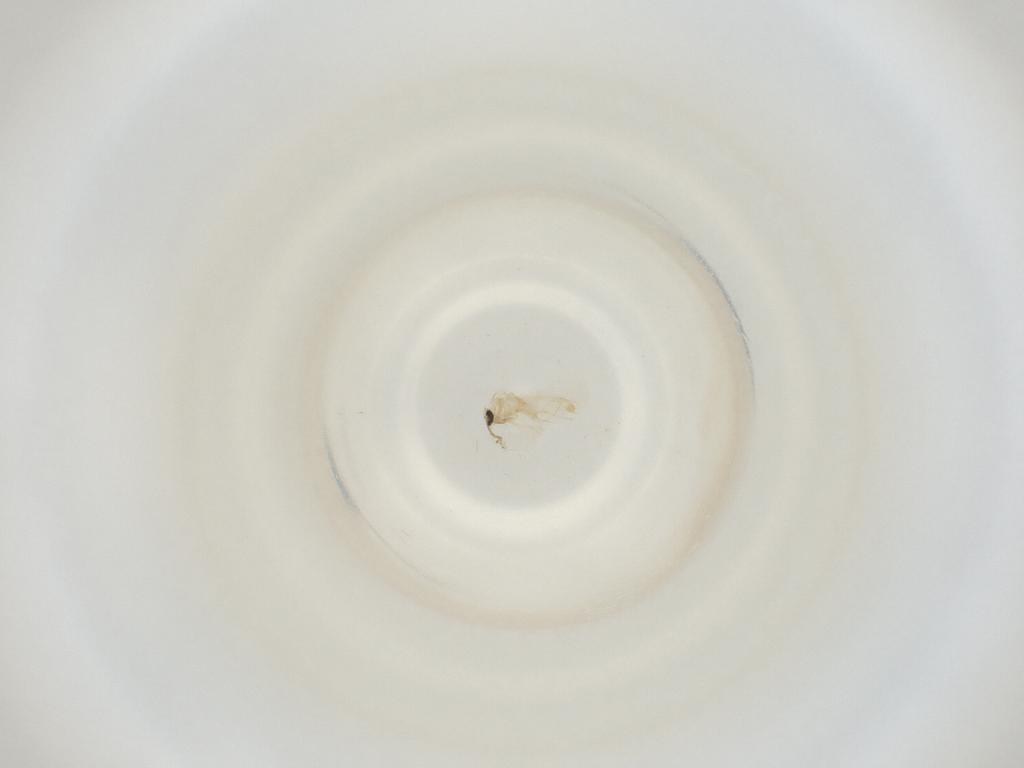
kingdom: Animalia
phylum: Arthropoda
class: Insecta
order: Diptera
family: Cecidomyiidae
